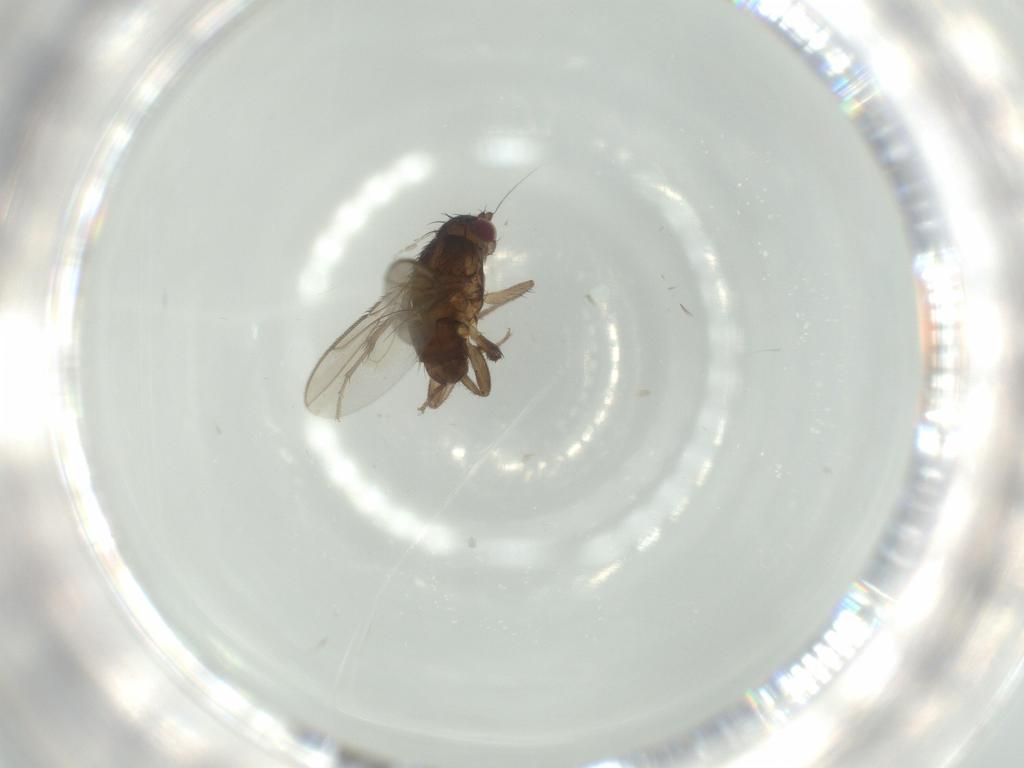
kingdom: Animalia
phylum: Arthropoda
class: Insecta
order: Diptera
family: Sphaeroceridae
